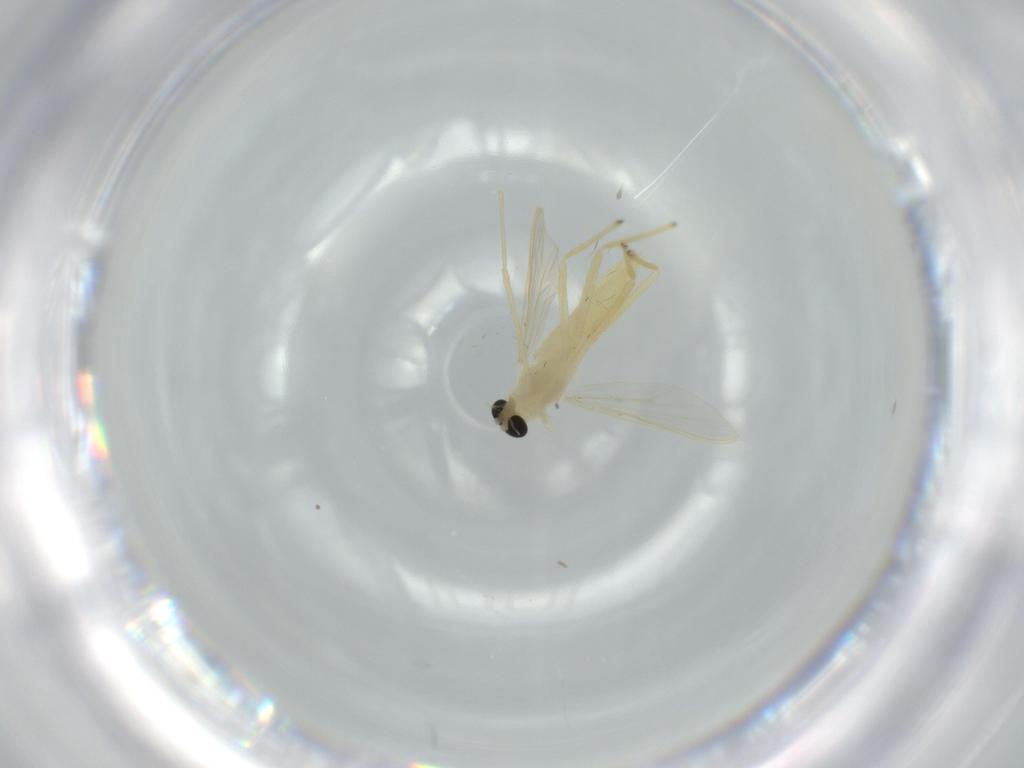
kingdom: Animalia
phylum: Arthropoda
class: Insecta
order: Diptera
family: Chironomidae
